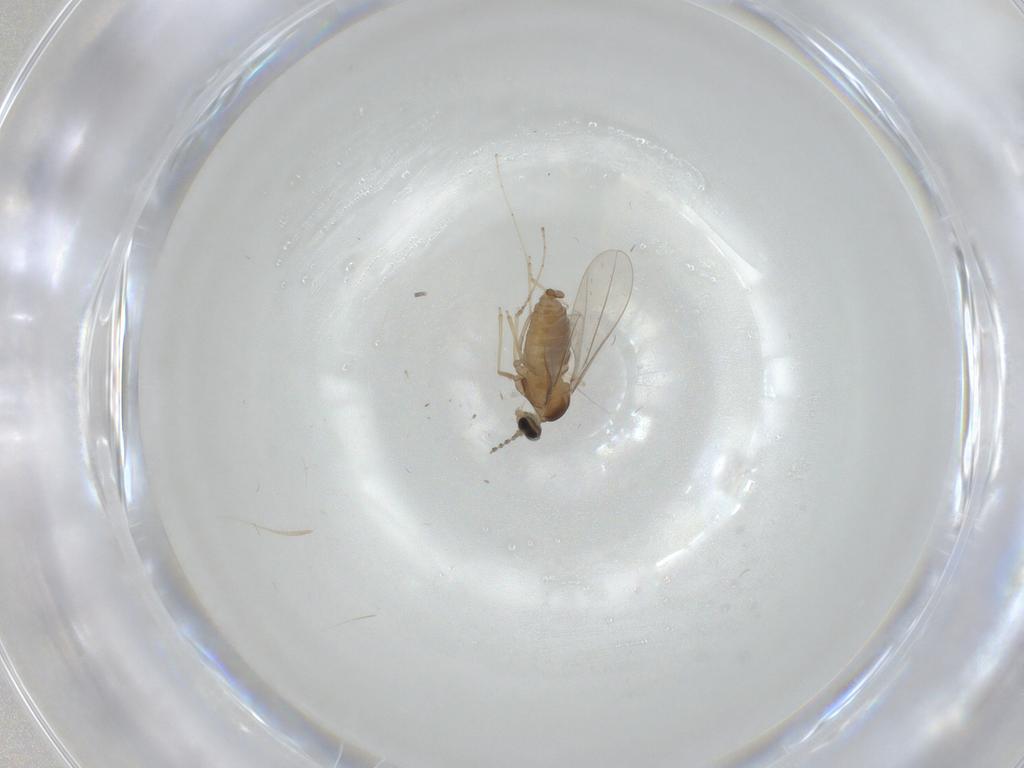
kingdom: Animalia
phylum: Arthropoda
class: Insecta
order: Diptera
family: Cecidomyiidae
